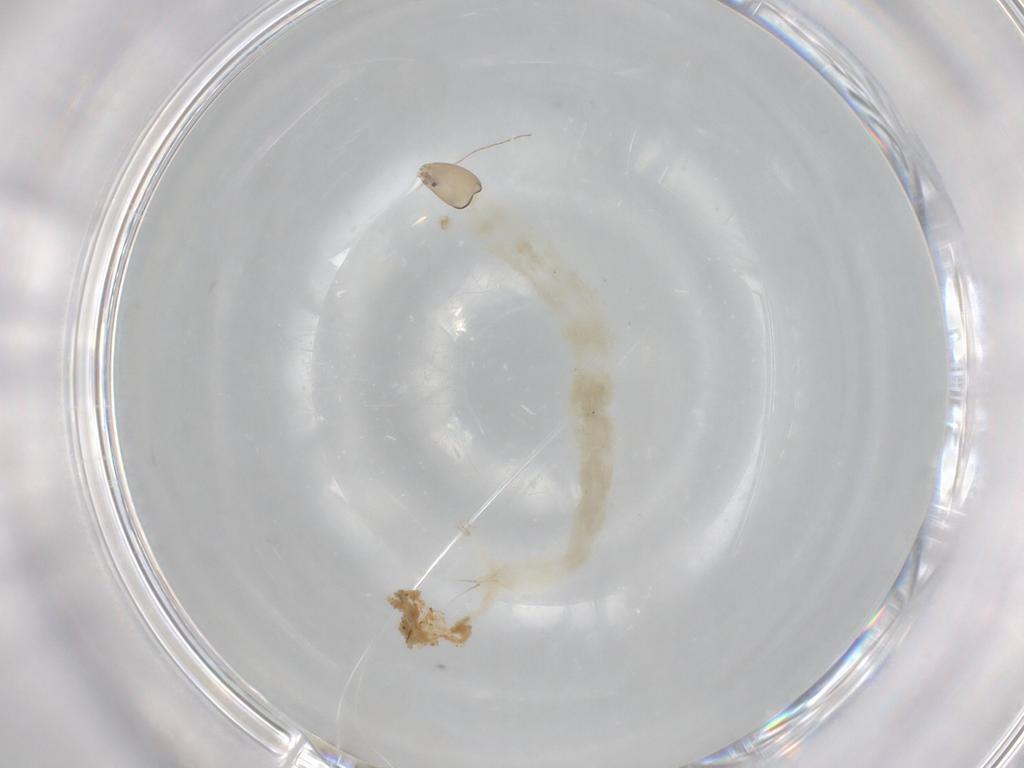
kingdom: Animalia
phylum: Arthropoda
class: Insecta
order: Diptera
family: Chironomidae
